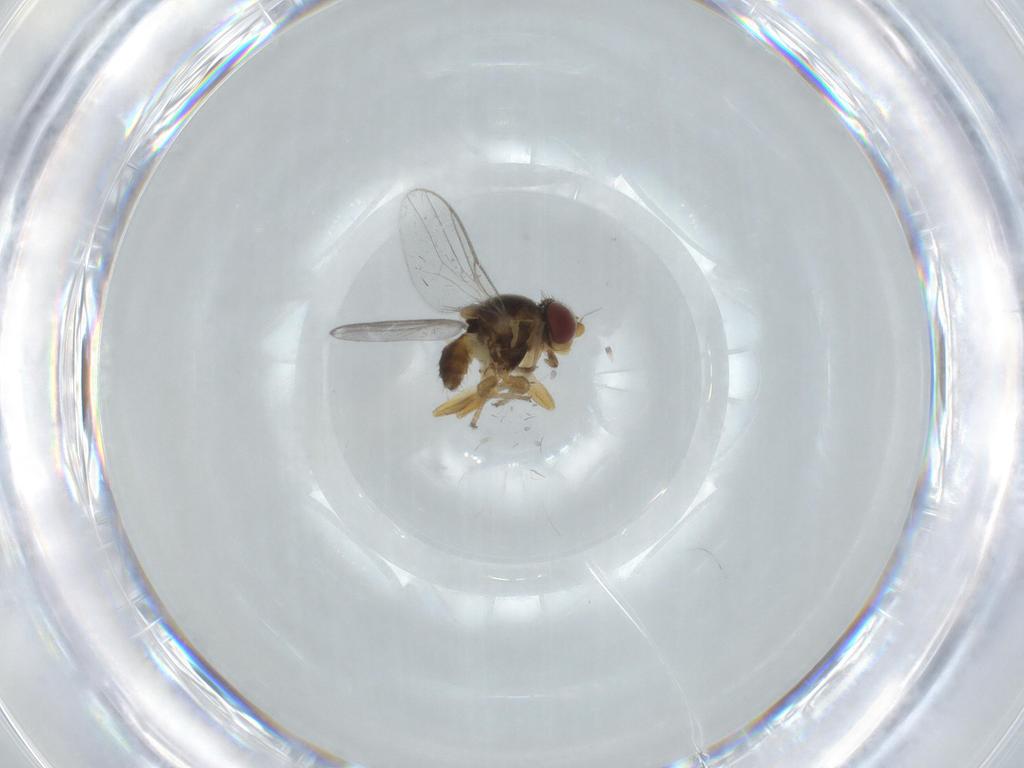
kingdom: Animalia
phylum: Arthropoda
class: Insecta
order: Diptera
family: Chloropidae
